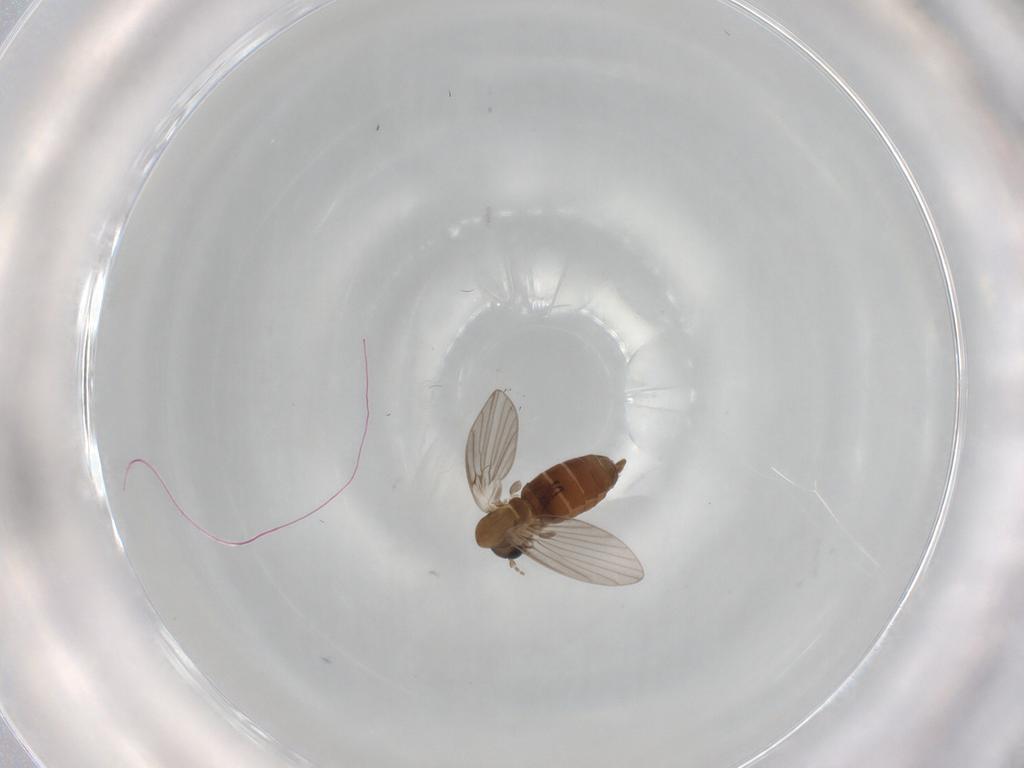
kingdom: Animalia
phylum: Arthropoda
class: Insecta
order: Diptera
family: Psychodidae
